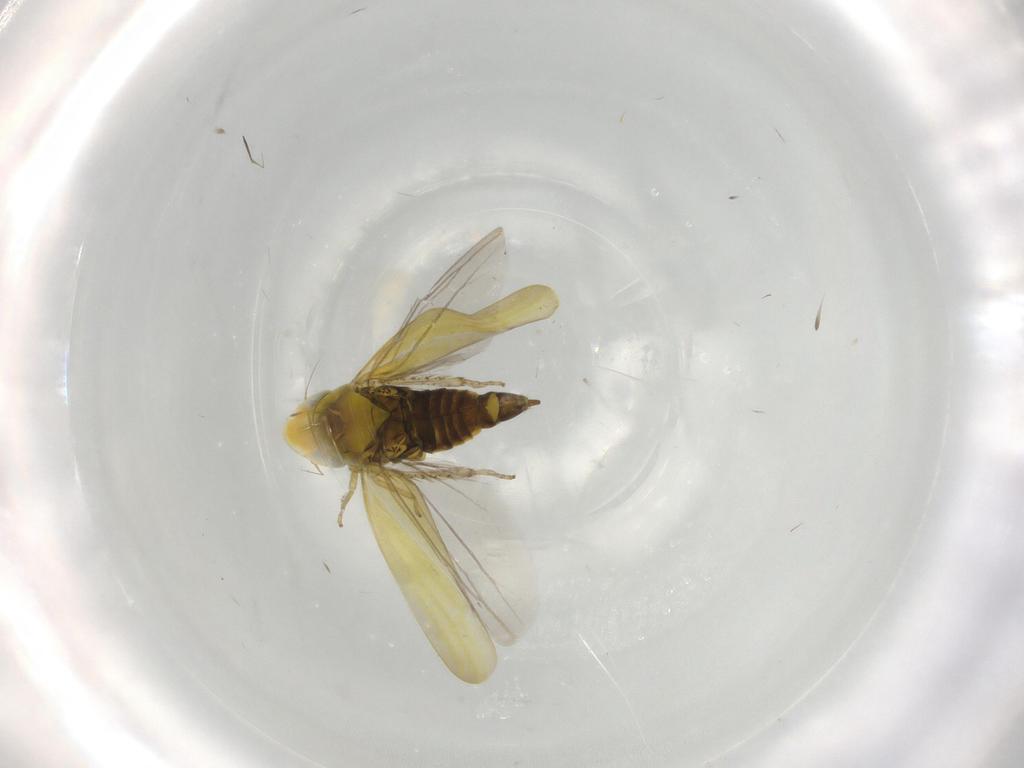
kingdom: Animalia
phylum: Arthropoda
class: Insecta
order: Hemiptera
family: Cicadellidae
